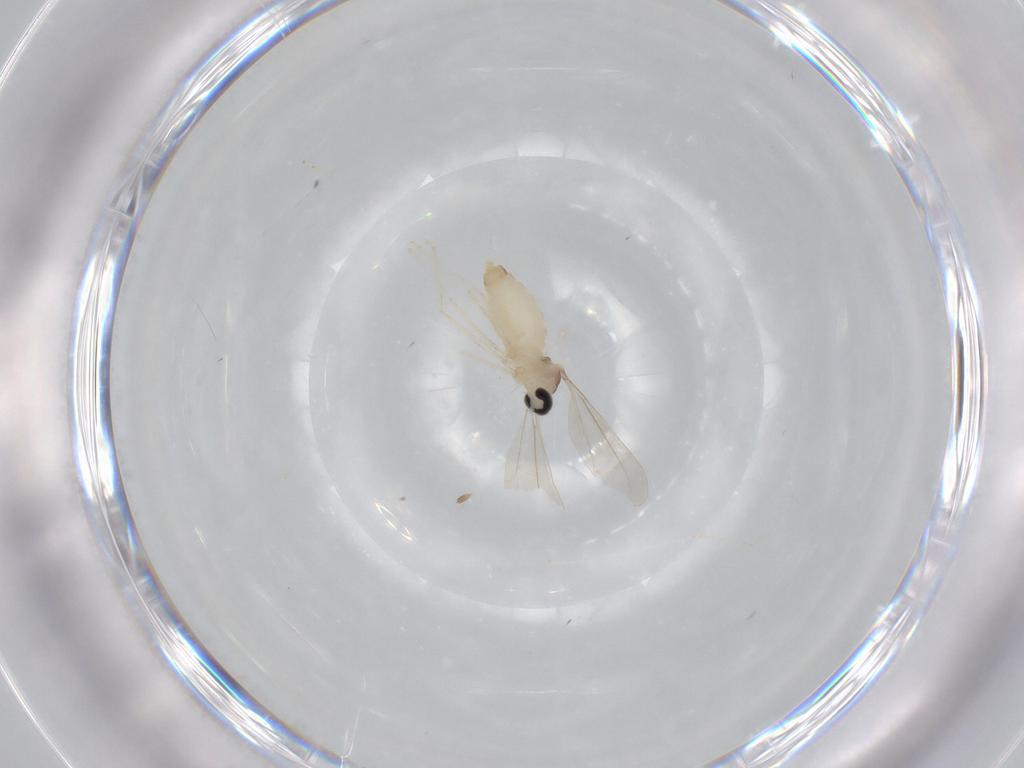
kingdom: Animalia
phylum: Arthropoda
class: Insecta
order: Diptera
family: Cecidomyiidae
